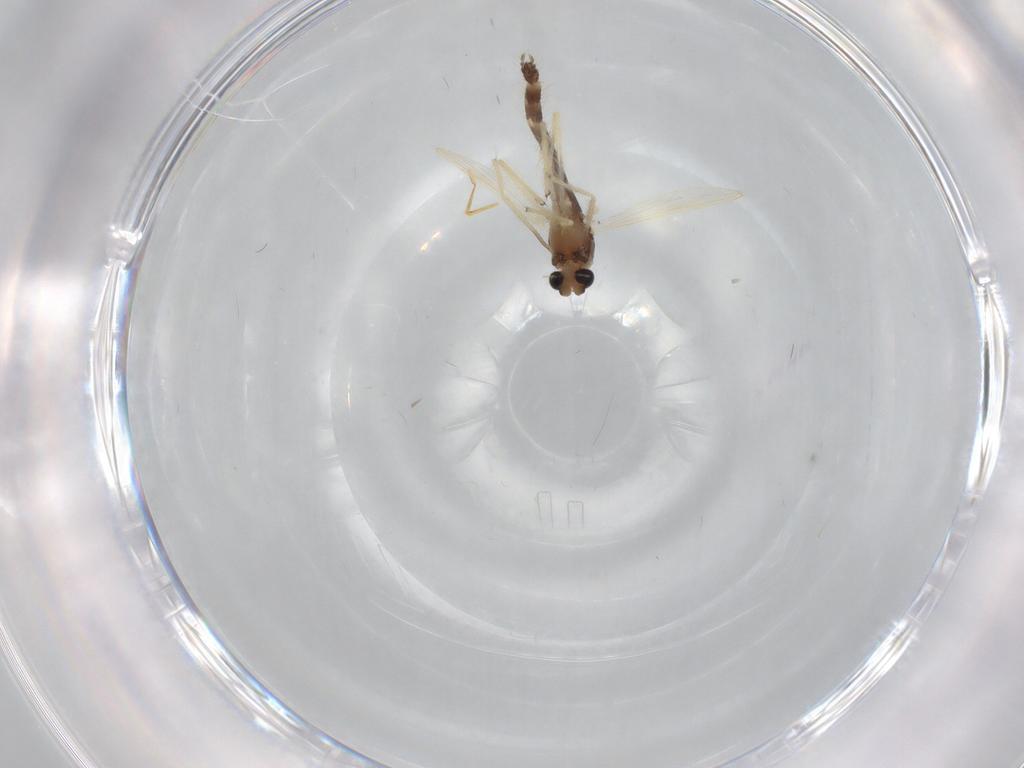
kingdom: Animalia
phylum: Arthropoda
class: Insecta
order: Diptera
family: Chironomidae
